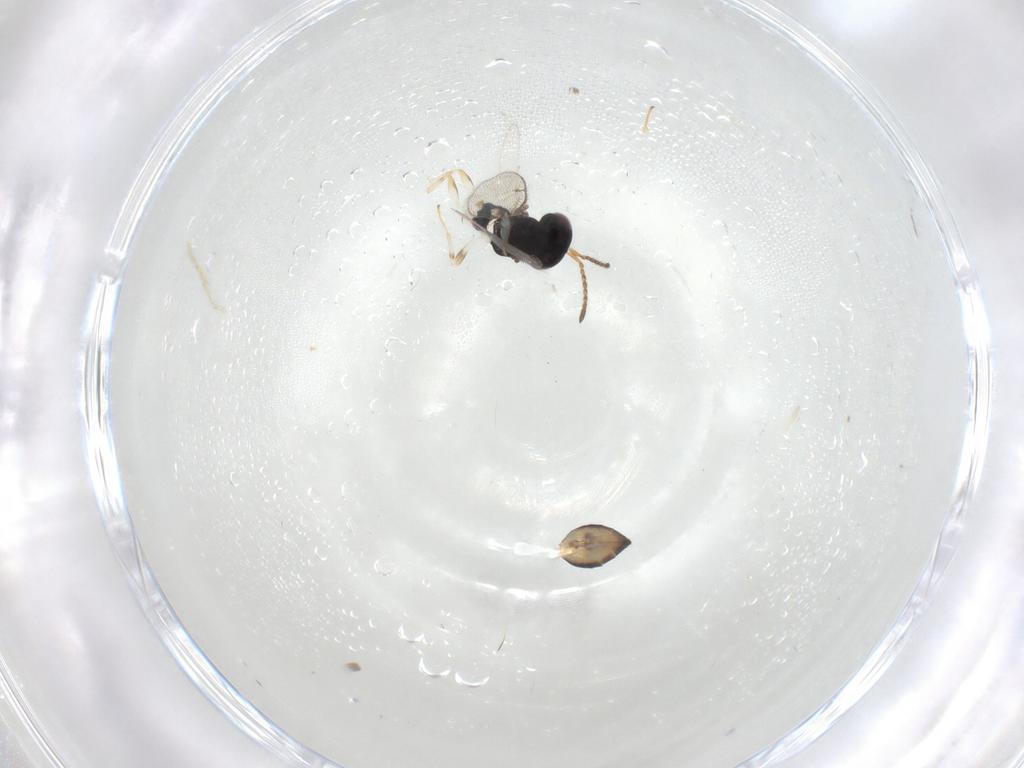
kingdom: Animalia
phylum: Arthropoda
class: Insecta
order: Hymenoptera
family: Pteromalidae
